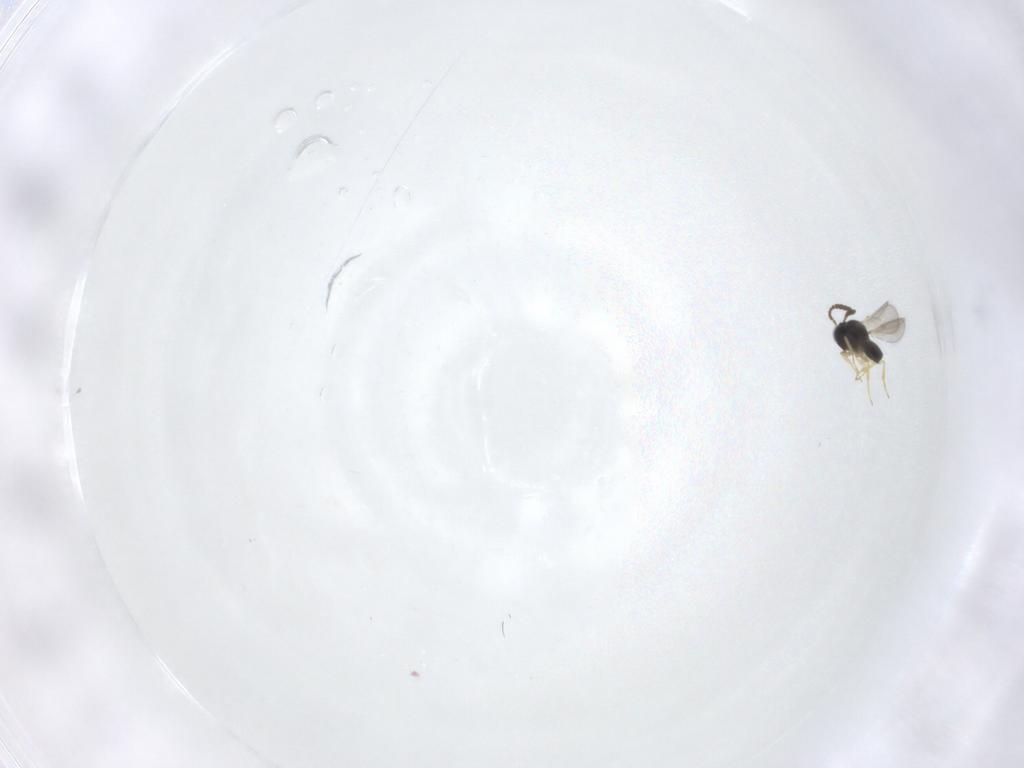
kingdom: Animalia
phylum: Arthropoda
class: Insecta
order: Hymenoptera
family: Scelionidae
